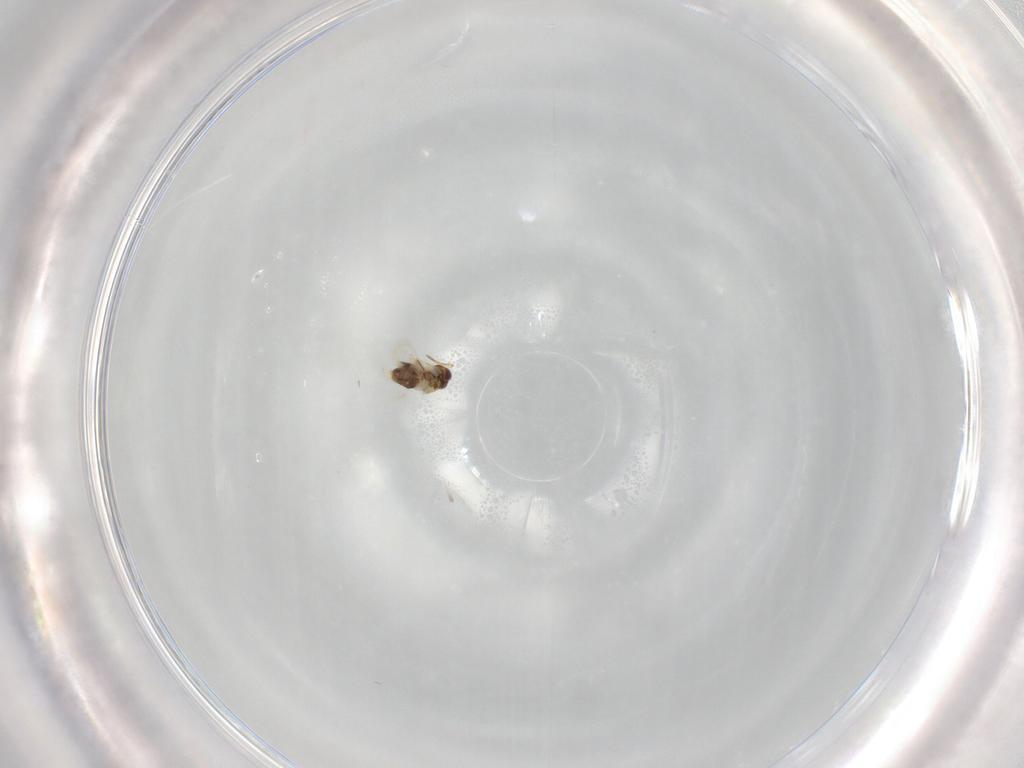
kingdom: Animalia
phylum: Arthropoda
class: Insecta
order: Hymenoptera
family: Aphelinidae
